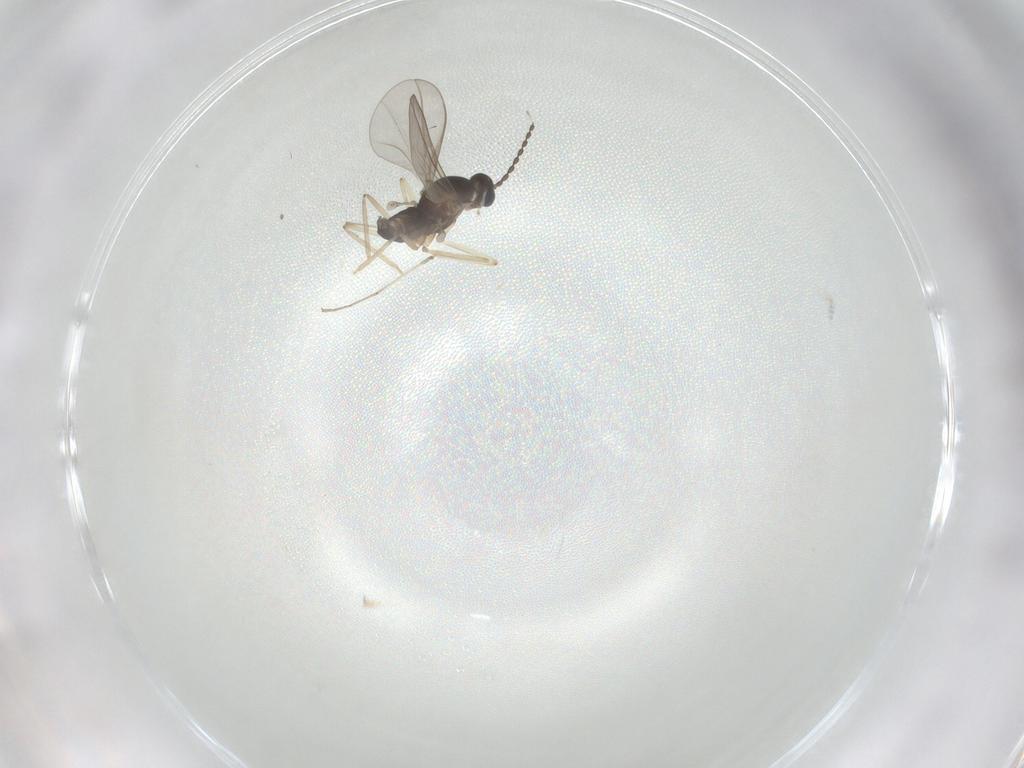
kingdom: Animalia
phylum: Arthropoda
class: Insecta
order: Diptera
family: Cecidomyiidae
